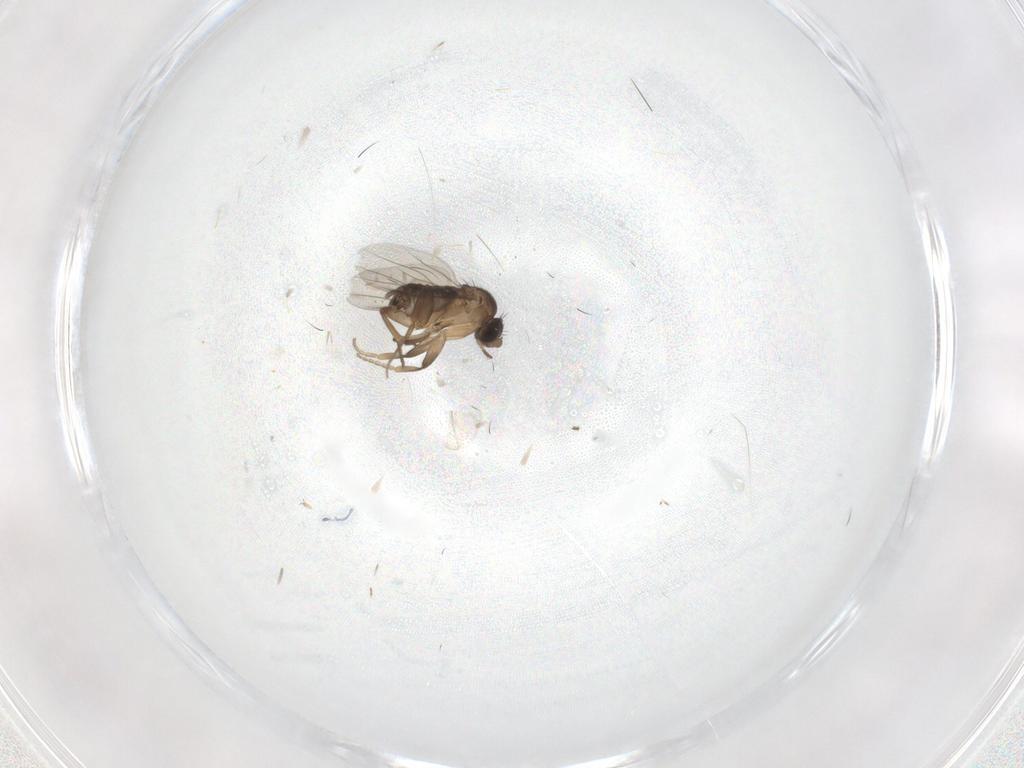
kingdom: Animalia
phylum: Arthropoda
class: Insecta
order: Diptera
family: Ceratopogonidae
